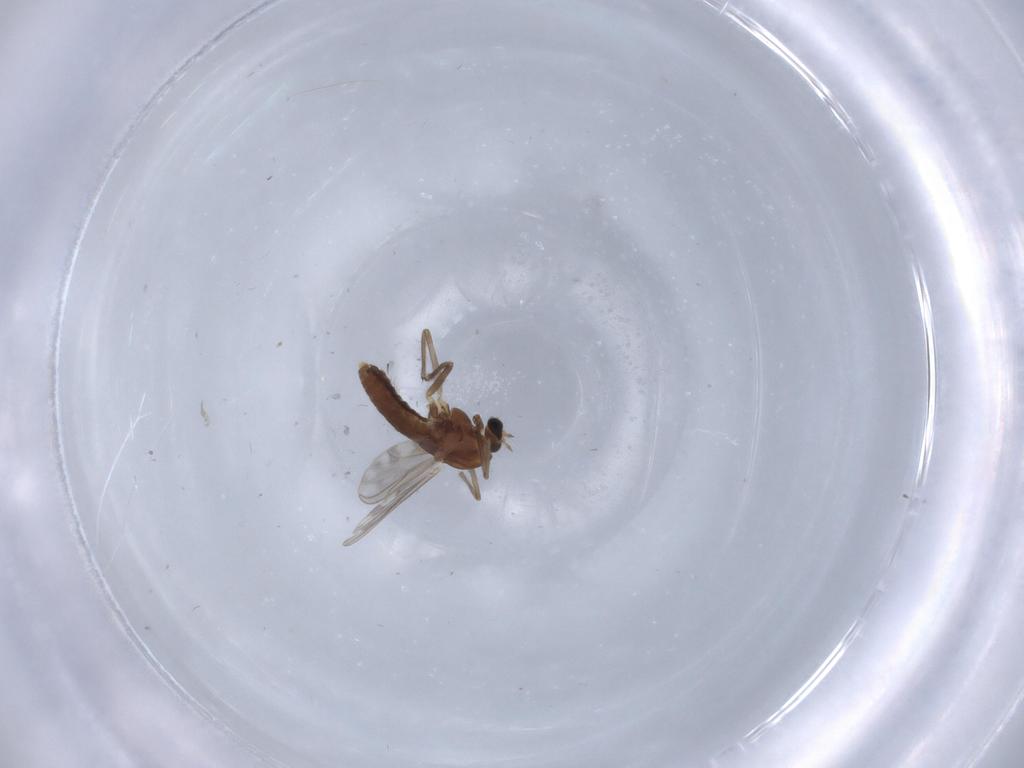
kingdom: Animalia
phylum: Arthropoda
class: Insecta
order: Diptera
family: Chironomidae
